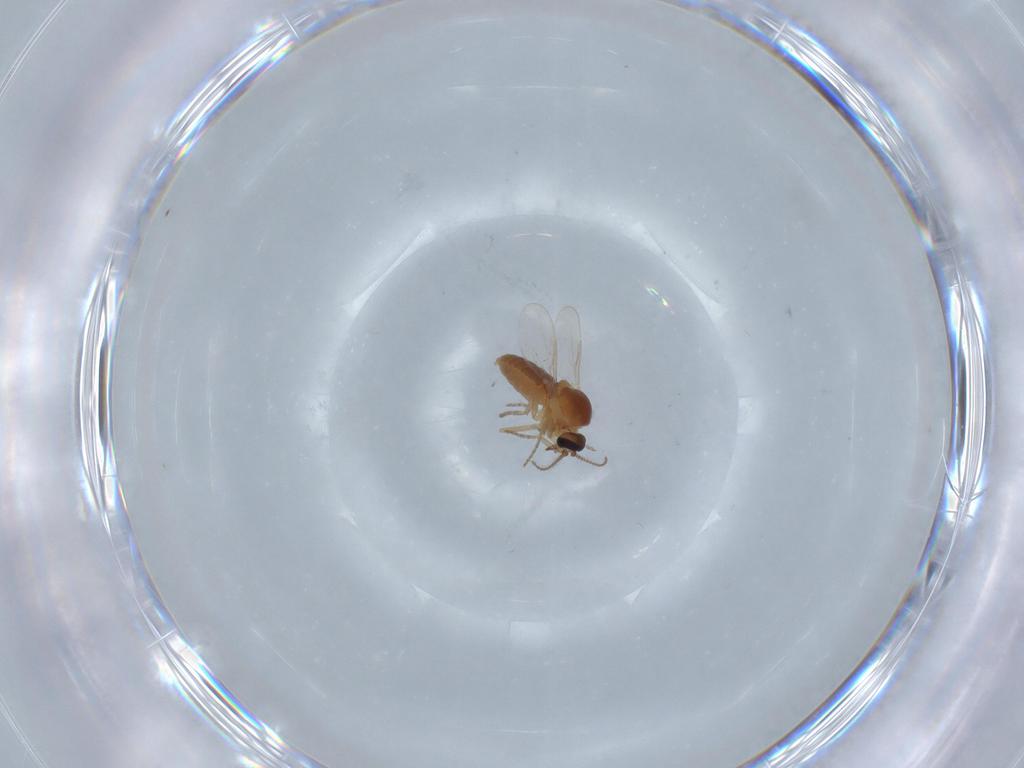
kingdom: Animalia
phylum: Arthropoda
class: Insecta
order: Diptera
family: Ceratopogonidae
